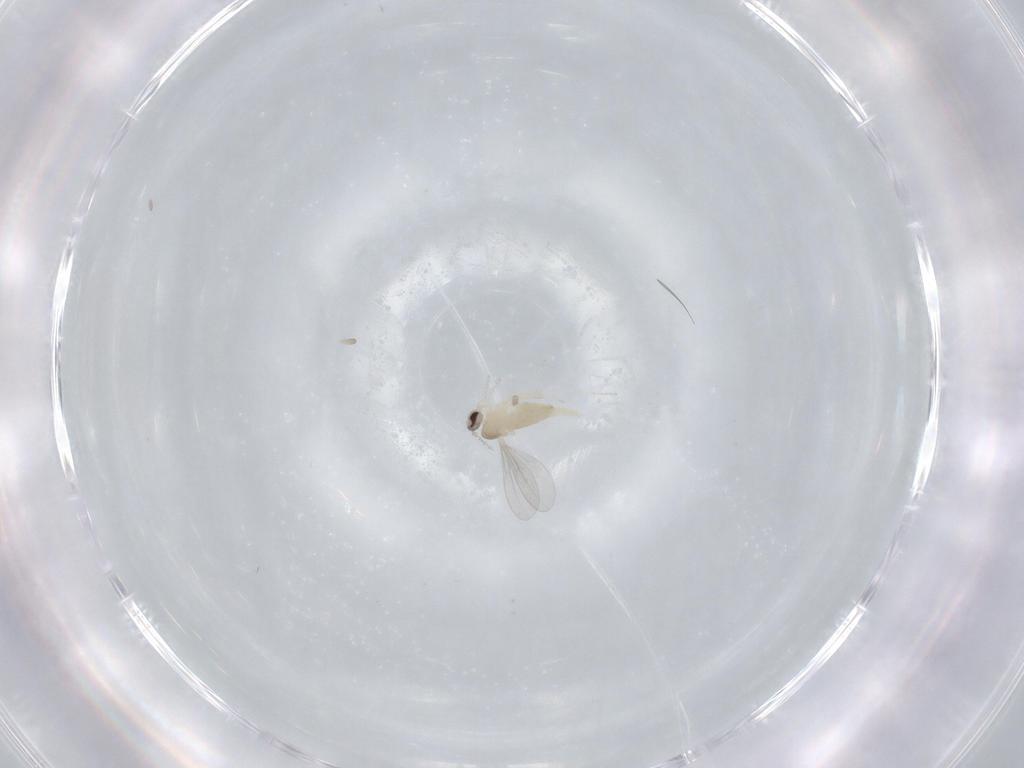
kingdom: Animalia
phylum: Arthropoda
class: Insecta
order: Diptera
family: Cecidomyiidae
